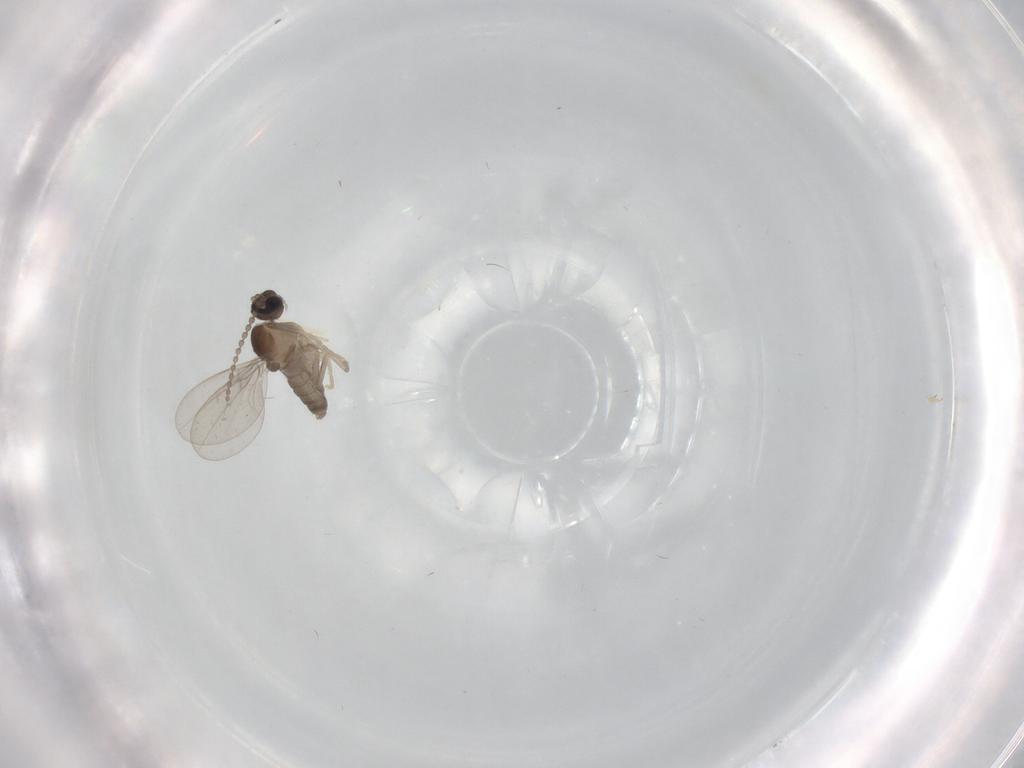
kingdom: Animalia
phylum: Arthropoda
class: Insecta
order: Diptera
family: Cecidomyiidae
